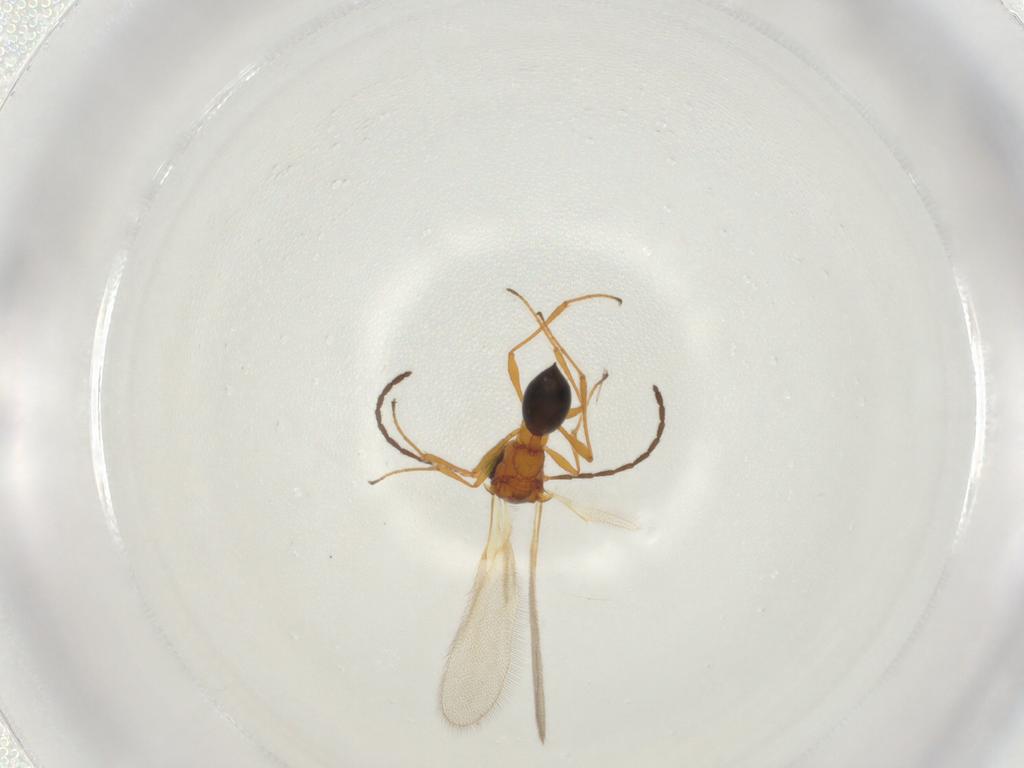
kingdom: Animalia
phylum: Arthropoda
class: Insecta
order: Hymenoptera
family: Diapriidae
